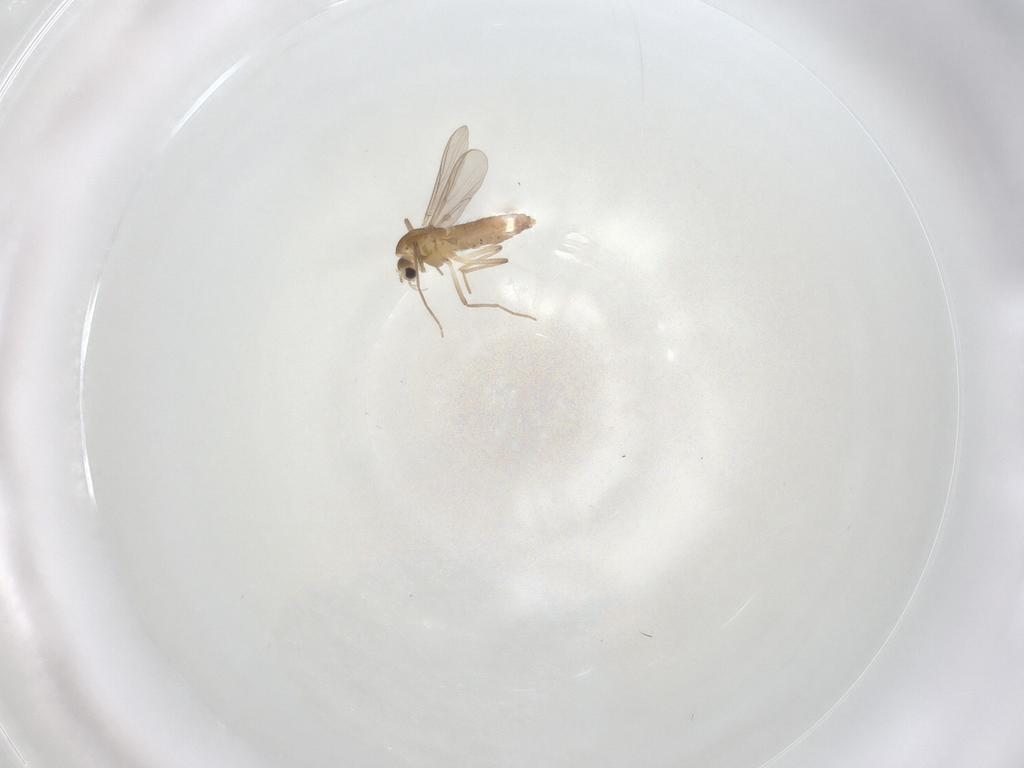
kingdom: Animalia
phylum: Arthropoda
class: Insecta
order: Diptera
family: Chironomidae
